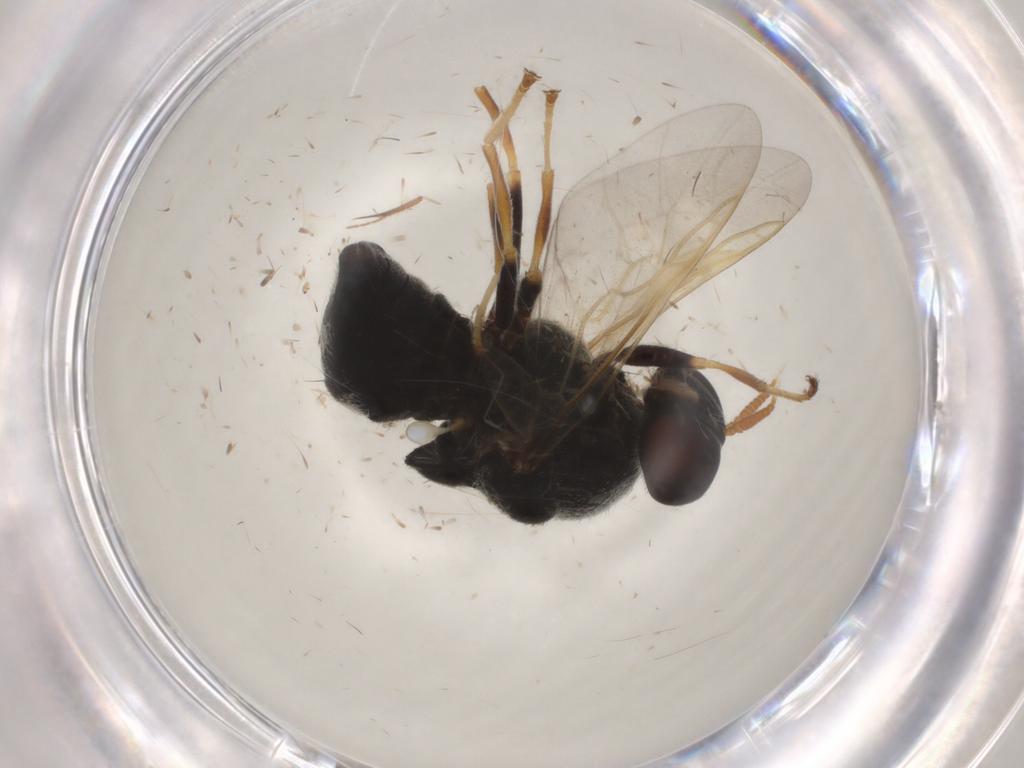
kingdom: Animalia
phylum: Arthropoda
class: Insecta
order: Diptera
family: Stratiomyidae
